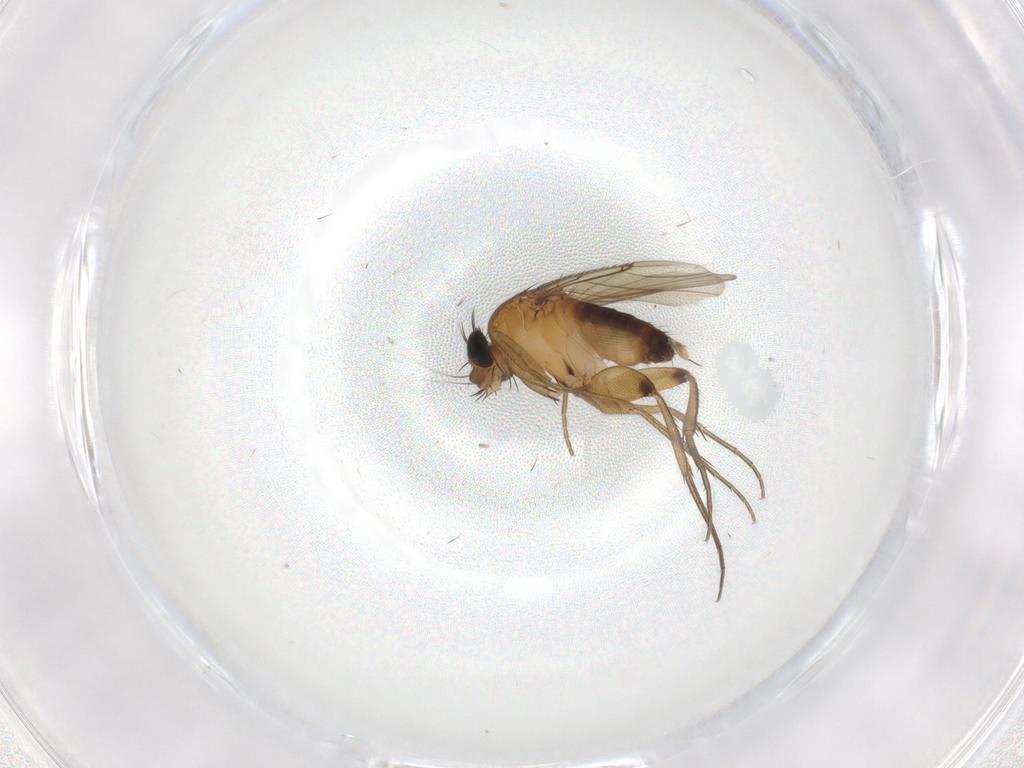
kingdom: Animalia
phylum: Arthropoda
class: Insecta
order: Diptera
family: Phoridae
